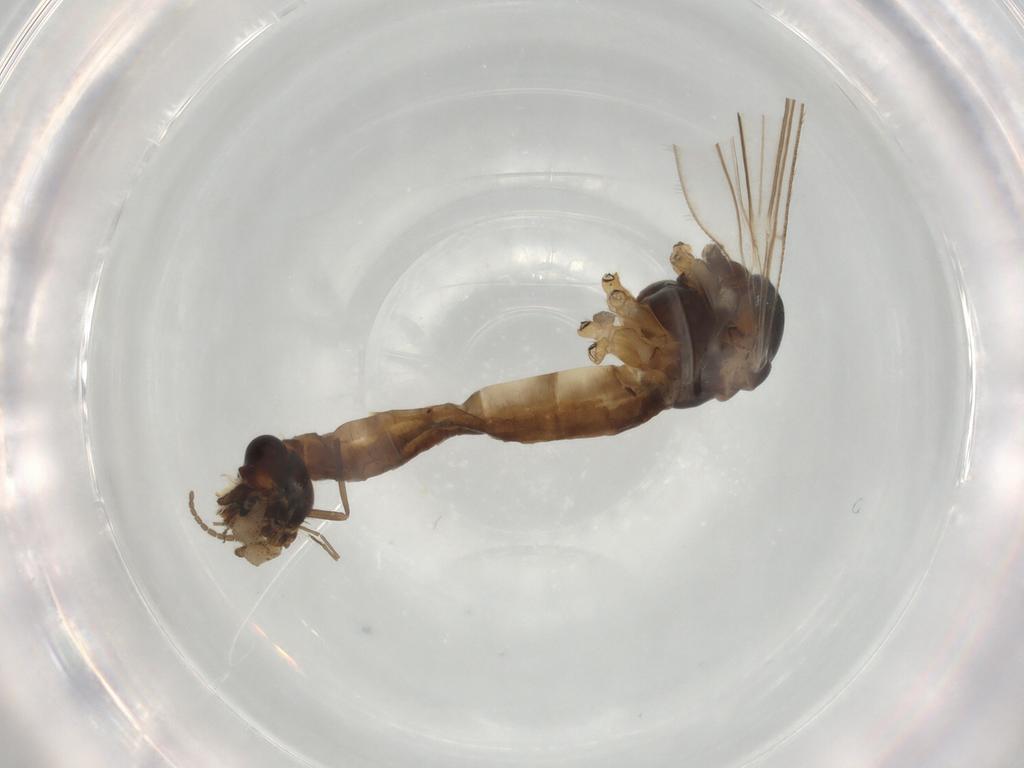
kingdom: Animalia
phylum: Arthropoda
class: Insecta
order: Diptera
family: Limoniidae
